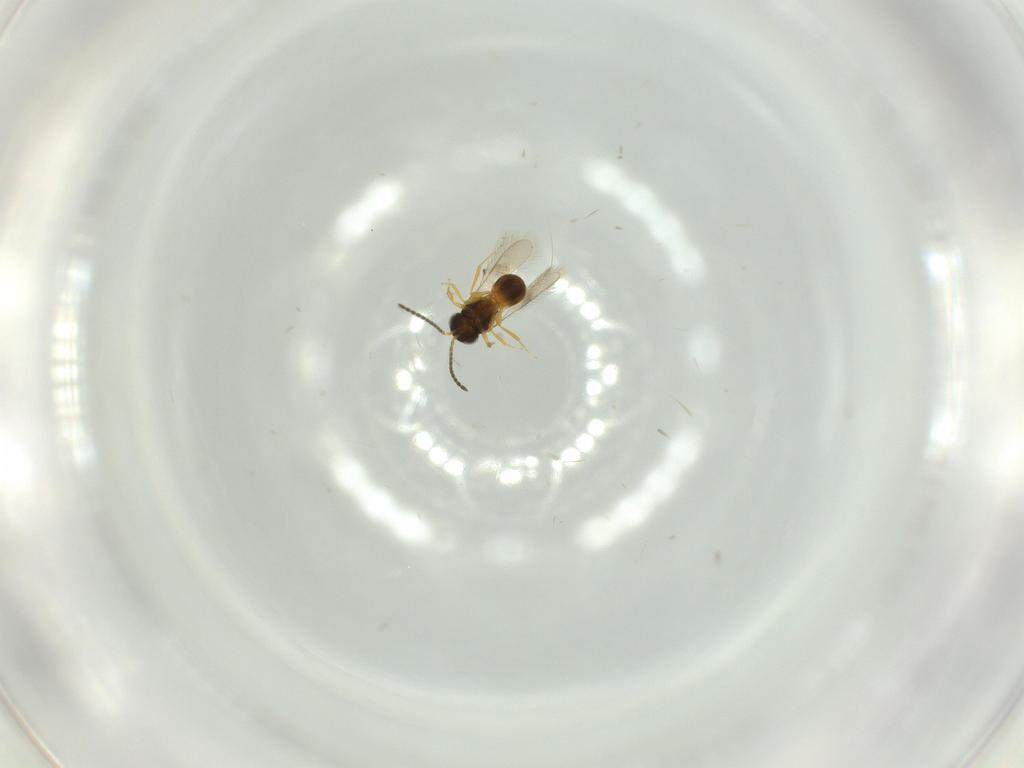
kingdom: Animalia
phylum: Arthropoda
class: Insecta
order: Hymenoptera
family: Scelionidae
